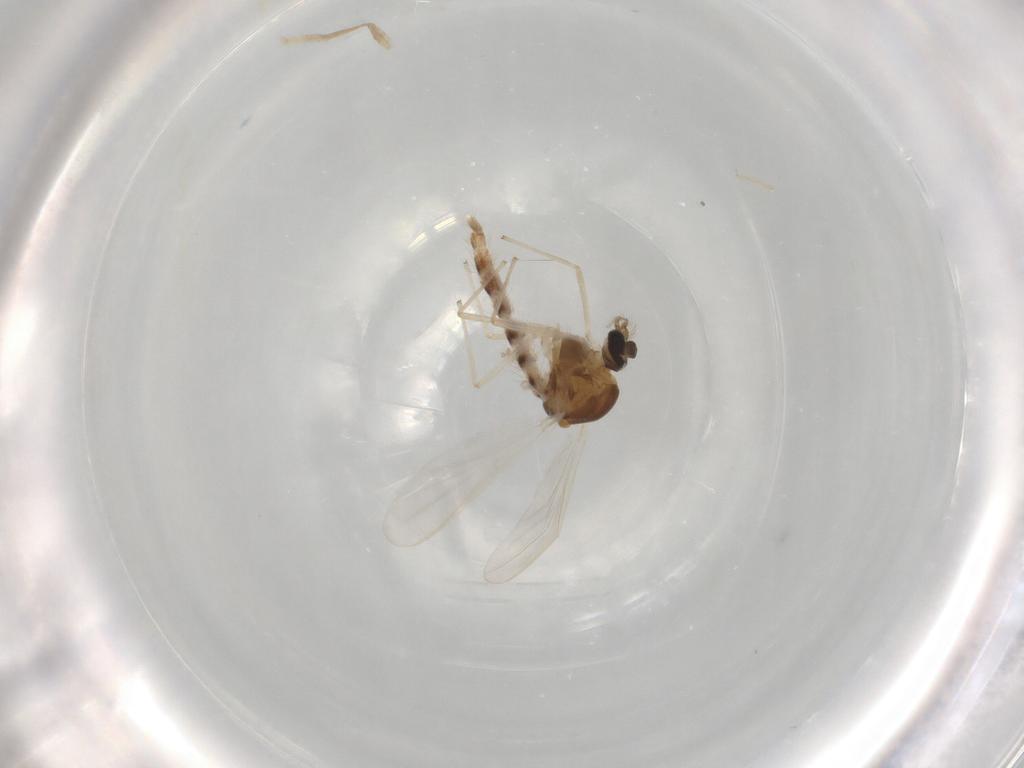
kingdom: Animalia
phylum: Arthropoda
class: Insecta
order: Diptera
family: Chironomidae
